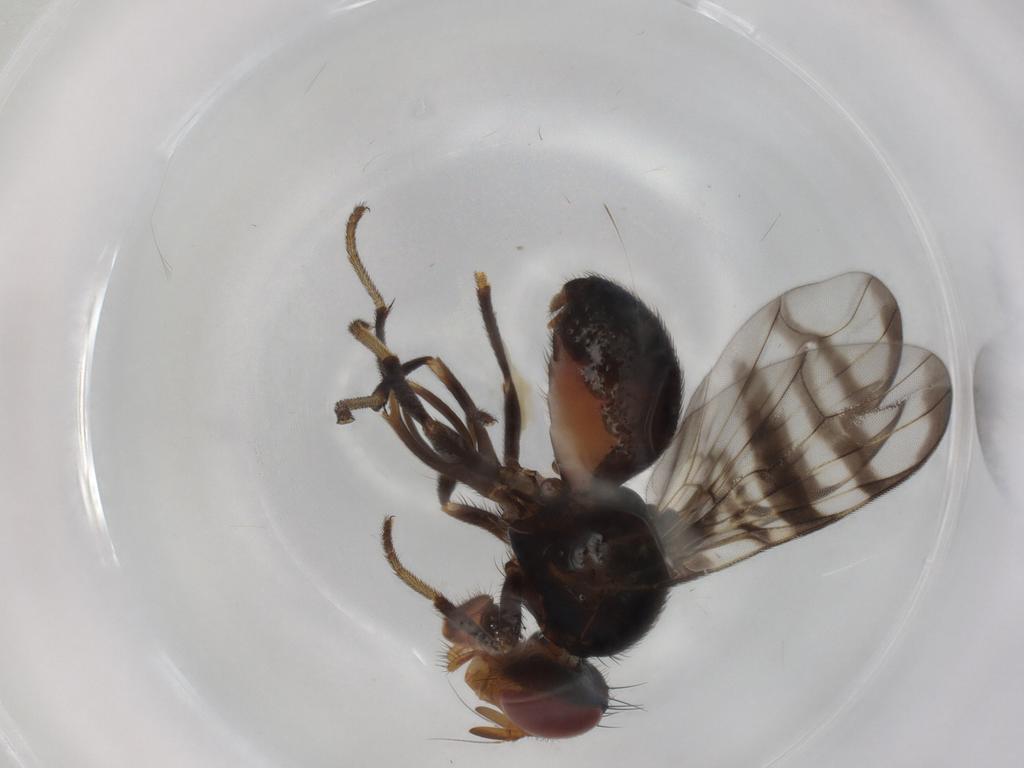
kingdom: Animalia
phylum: Arthropoda
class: Insecta
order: Diptera
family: Platystomatidae
